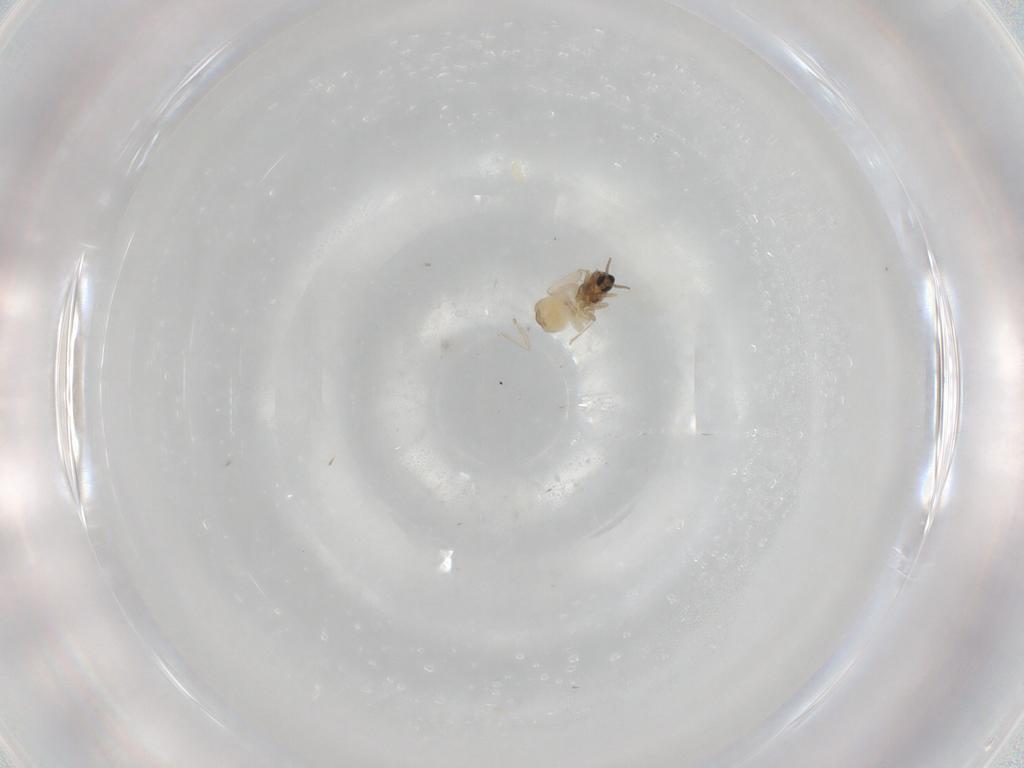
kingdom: Animalia
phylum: Arthropoda
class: Insecta
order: Diptera
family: Cecidomyiidae
